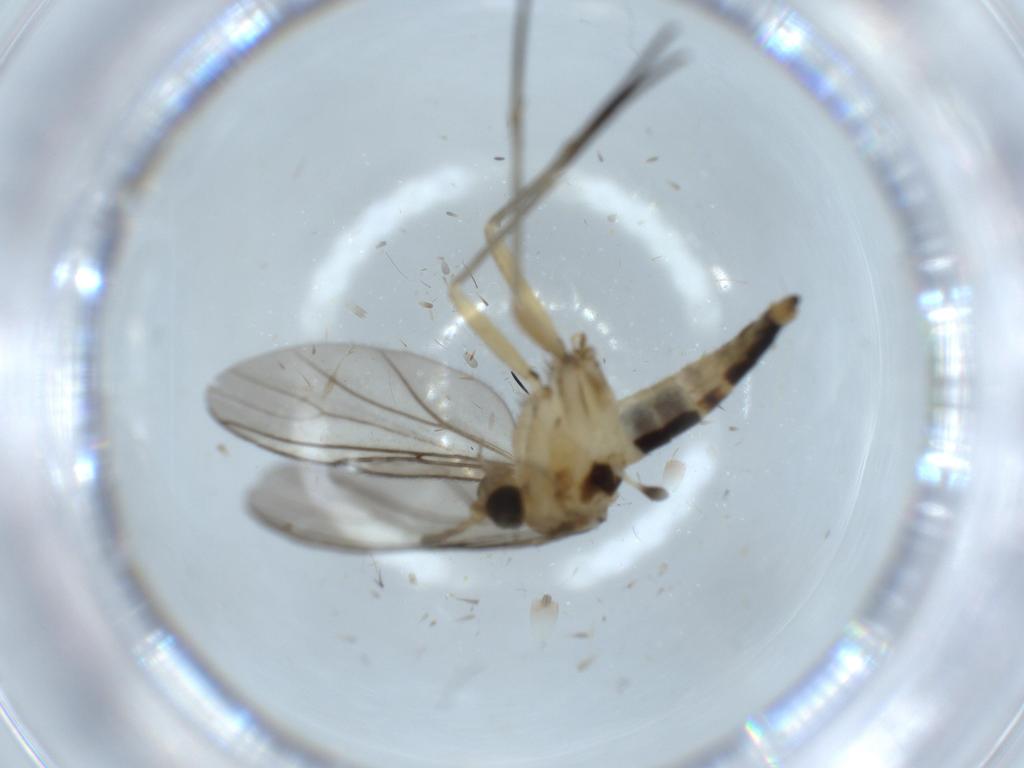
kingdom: Animalia
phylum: Arthropoda
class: Insecta
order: Diptera
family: Sciaridae
